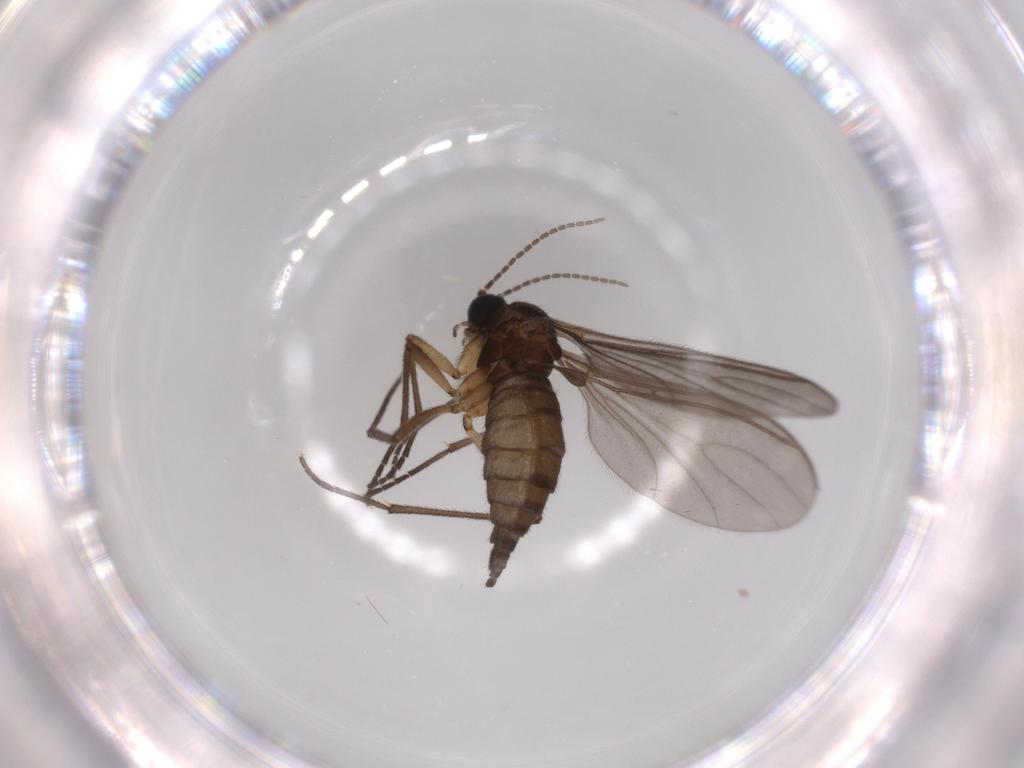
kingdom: Animalia
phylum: Arthropoda
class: Insecta
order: Diptera
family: Sciaridae
